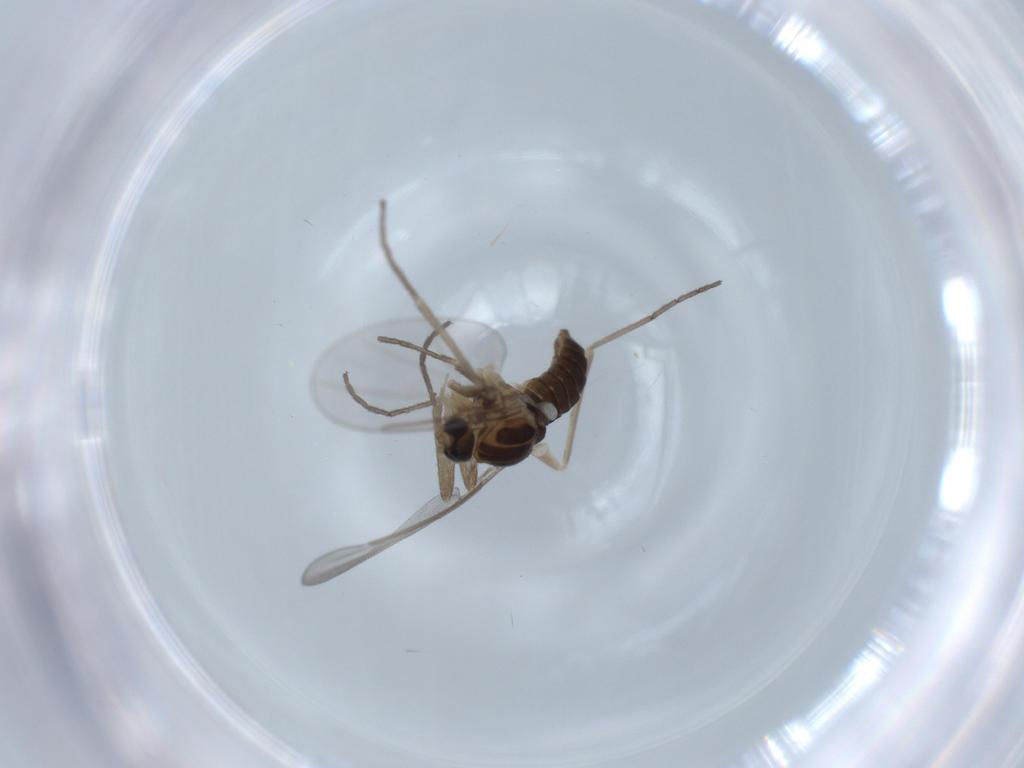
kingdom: Animalia
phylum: Arthropoda
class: Insecta
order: Diptera
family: Cecidomyiidae
